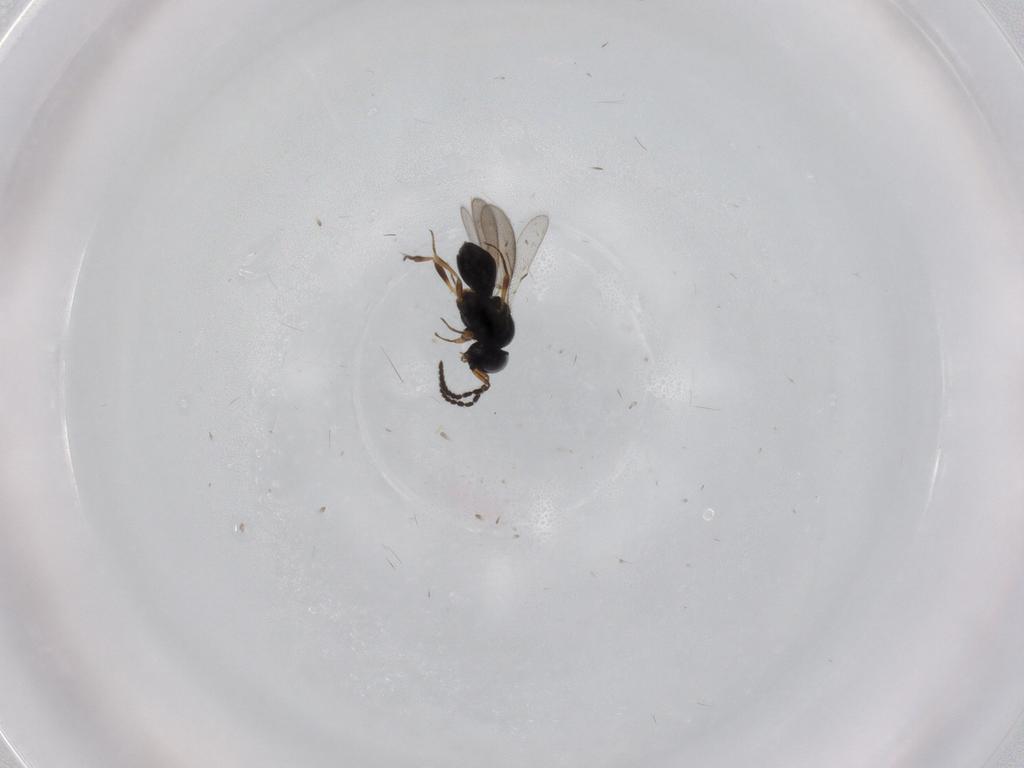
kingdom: Animalia
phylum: Arthropoda
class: Insecta
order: Hymenoptera
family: Scelionidae
